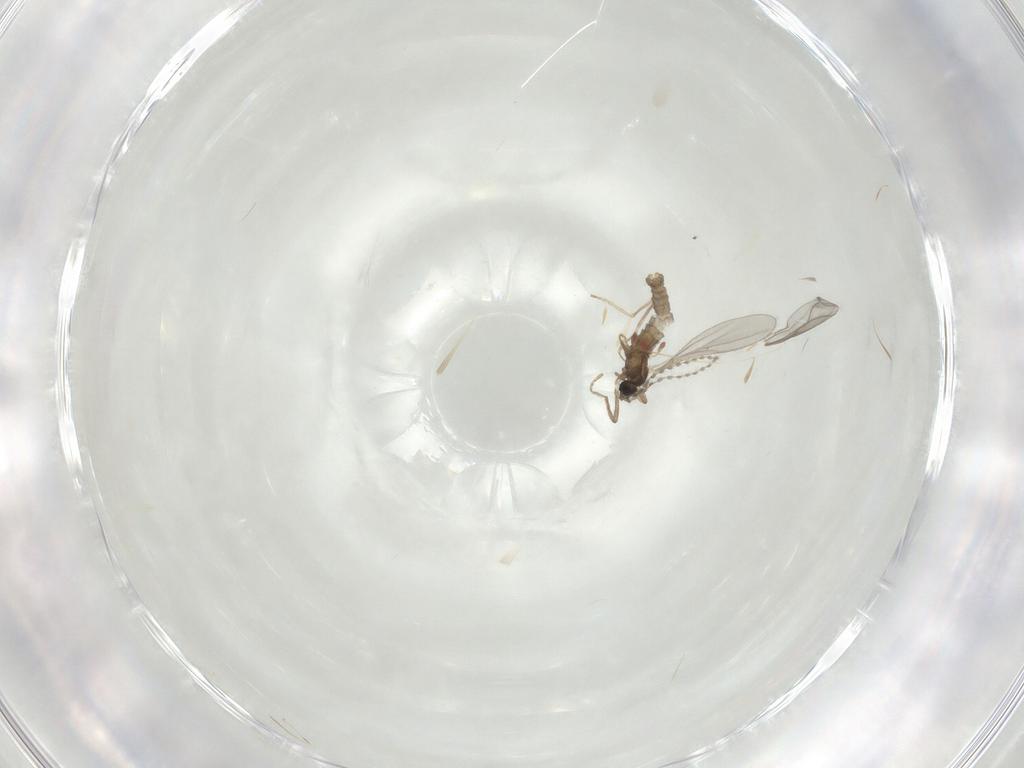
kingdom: Animalia
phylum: Arthropoda
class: Insecta
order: Diptera
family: Cecidomyiidae
